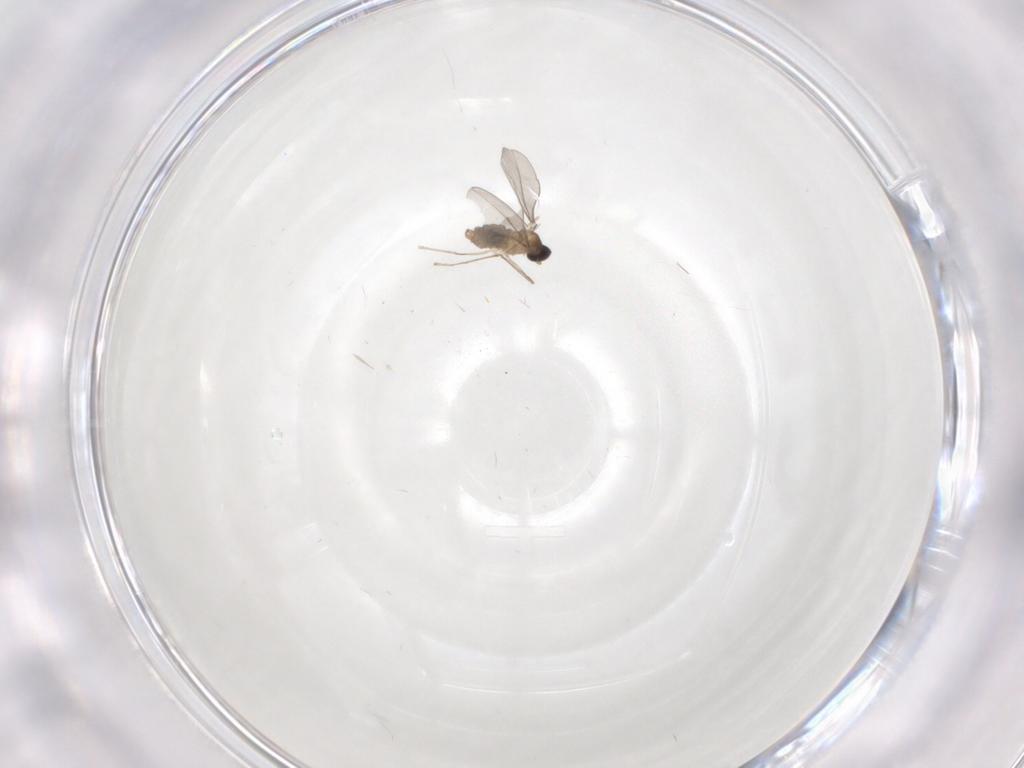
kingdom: Animalia
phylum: Arthropoda
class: Insecta
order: Diptera
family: Cecidomyiidae
